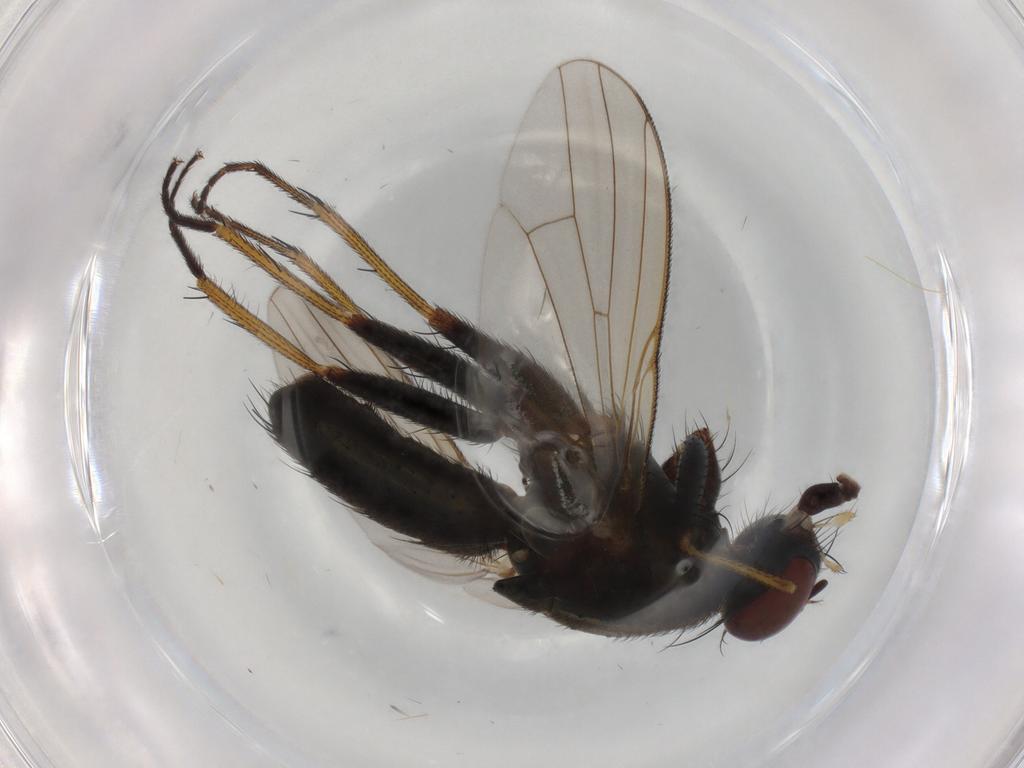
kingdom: Animalia
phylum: Arthropoda
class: Insecta
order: Diptera
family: Muscidae
